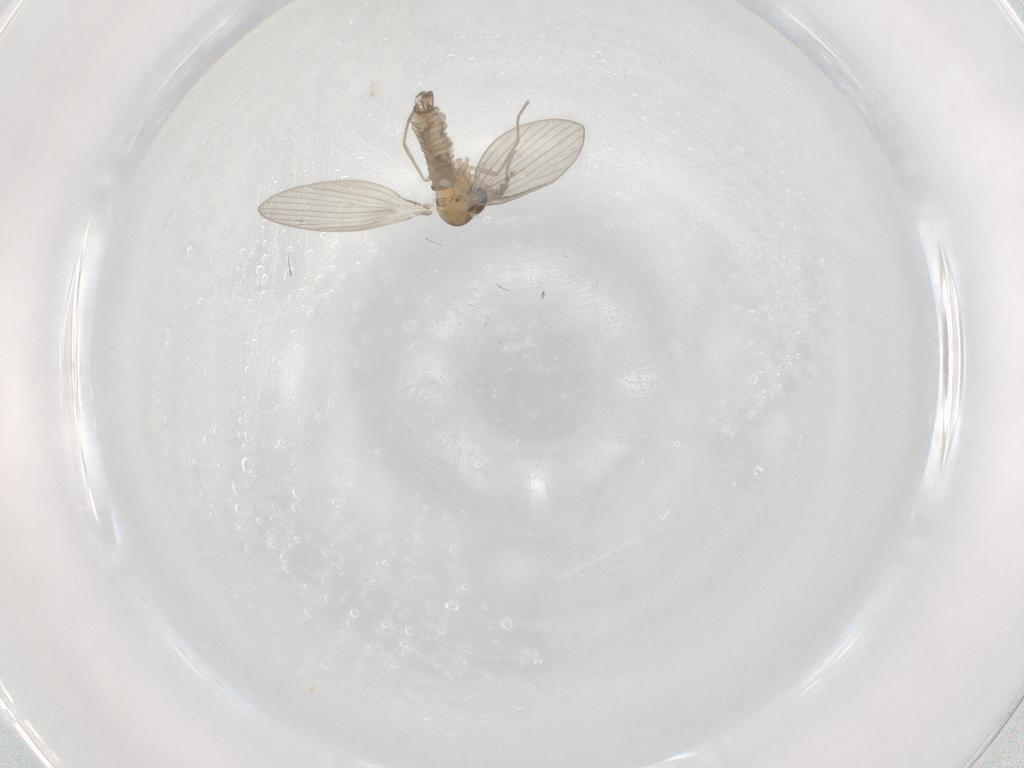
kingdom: Animalia
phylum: Arthropoda
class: Insecta
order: Diptera
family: Psychodidae
